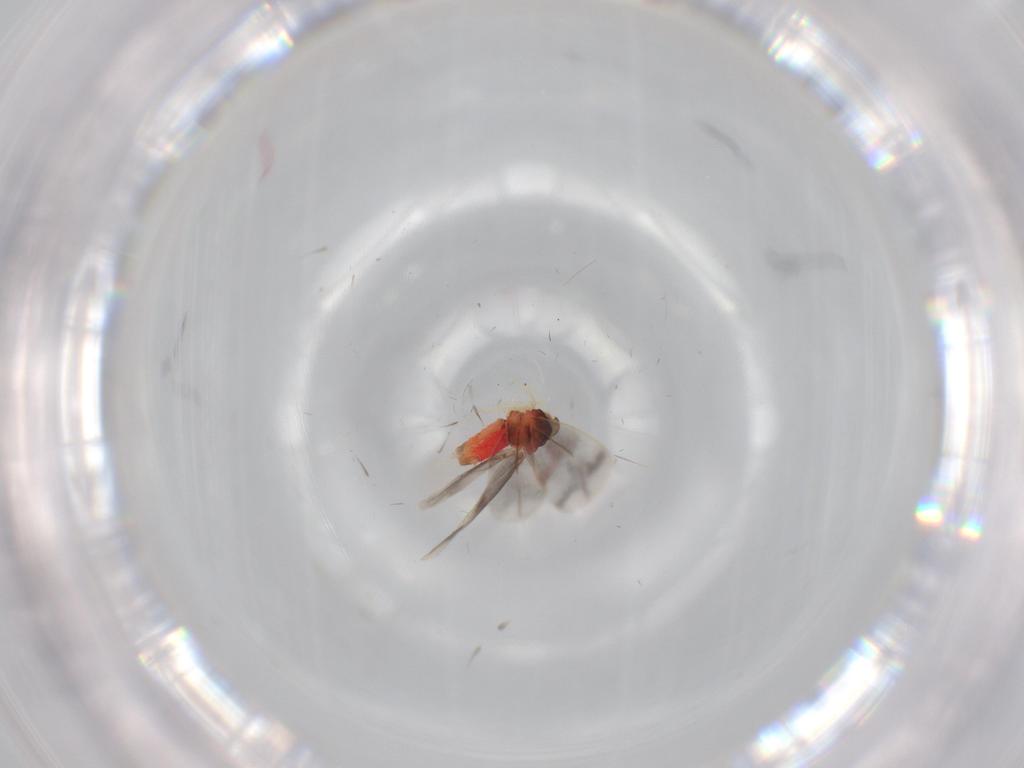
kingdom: Animalia
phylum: Arthropoda
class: Insecta
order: Hemiptera
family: Aleyrodidae
